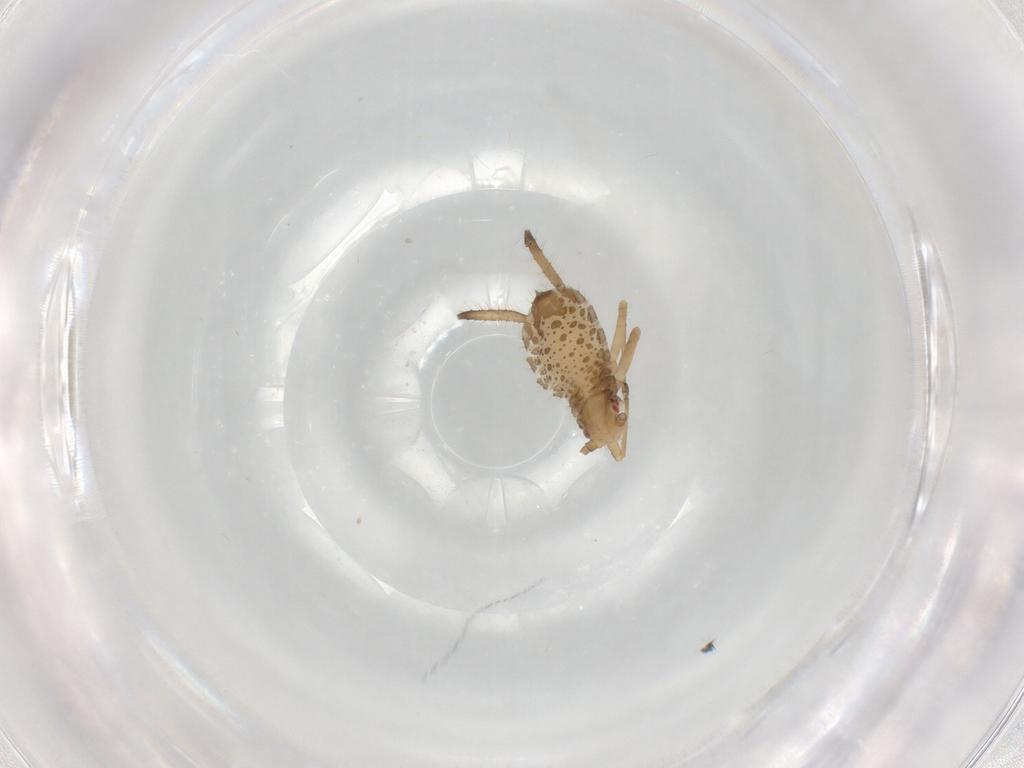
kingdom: Animalia
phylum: Arthropoda
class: Insecta
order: Hemiptera
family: Aphididae
